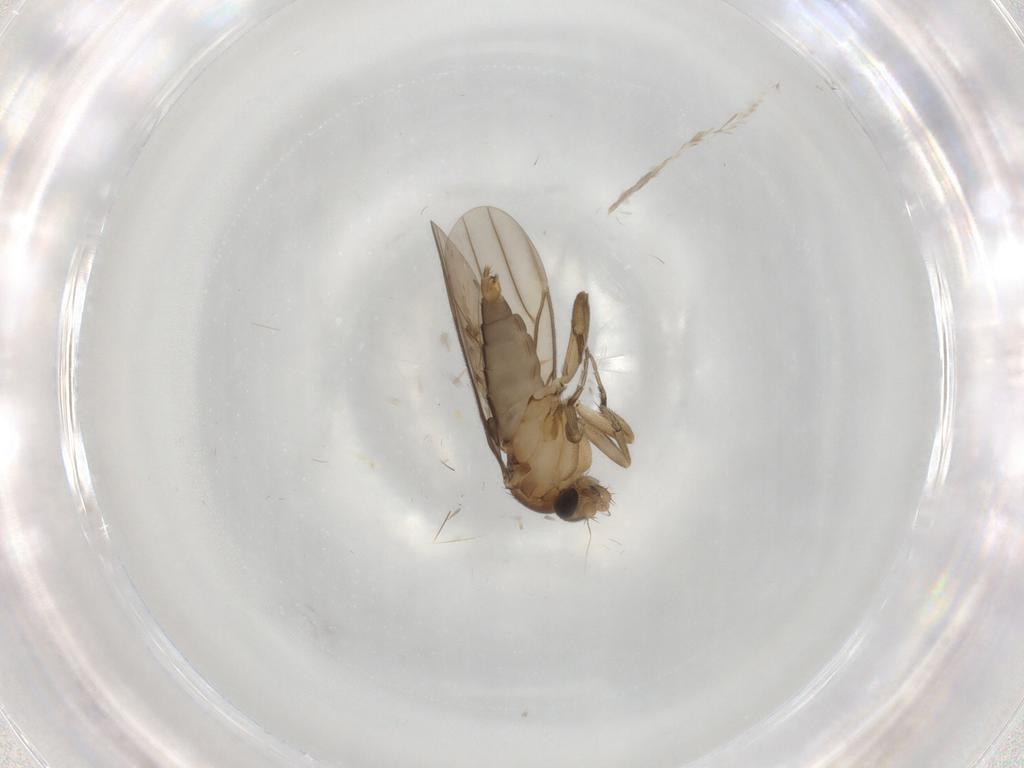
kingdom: Animalia
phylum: Arthropoda
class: Insecta
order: Diptera
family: Phoridae
